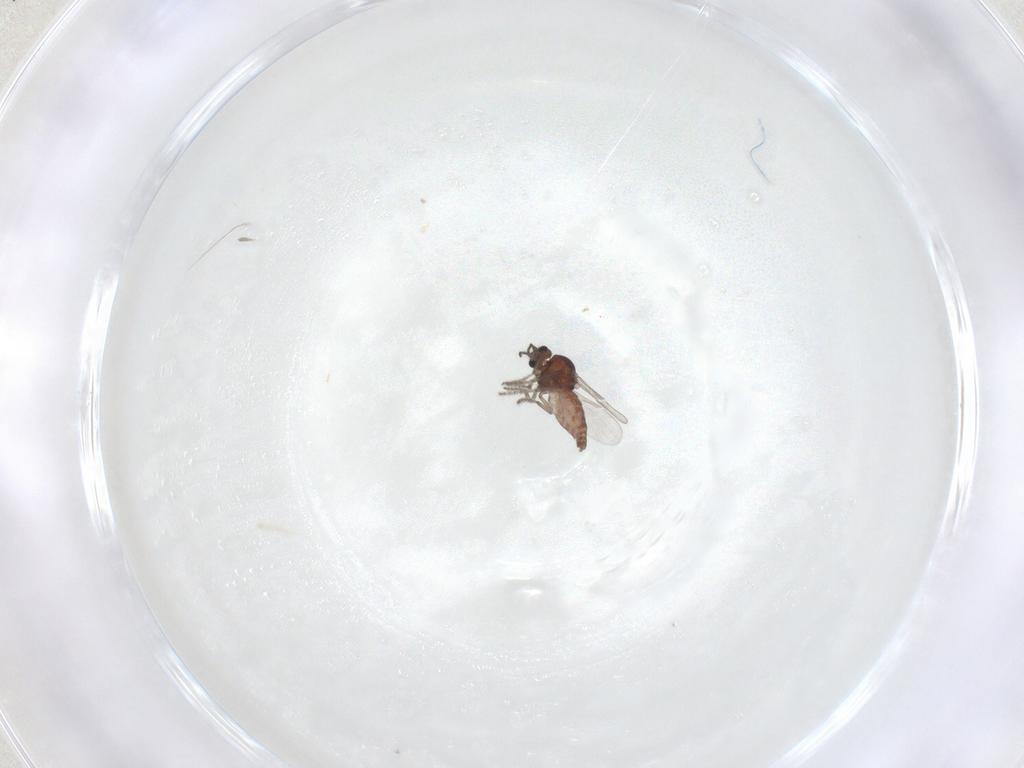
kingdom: Animalia
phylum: Arthropoda
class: Insecta
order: Diptera
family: Ceratopogonidae
